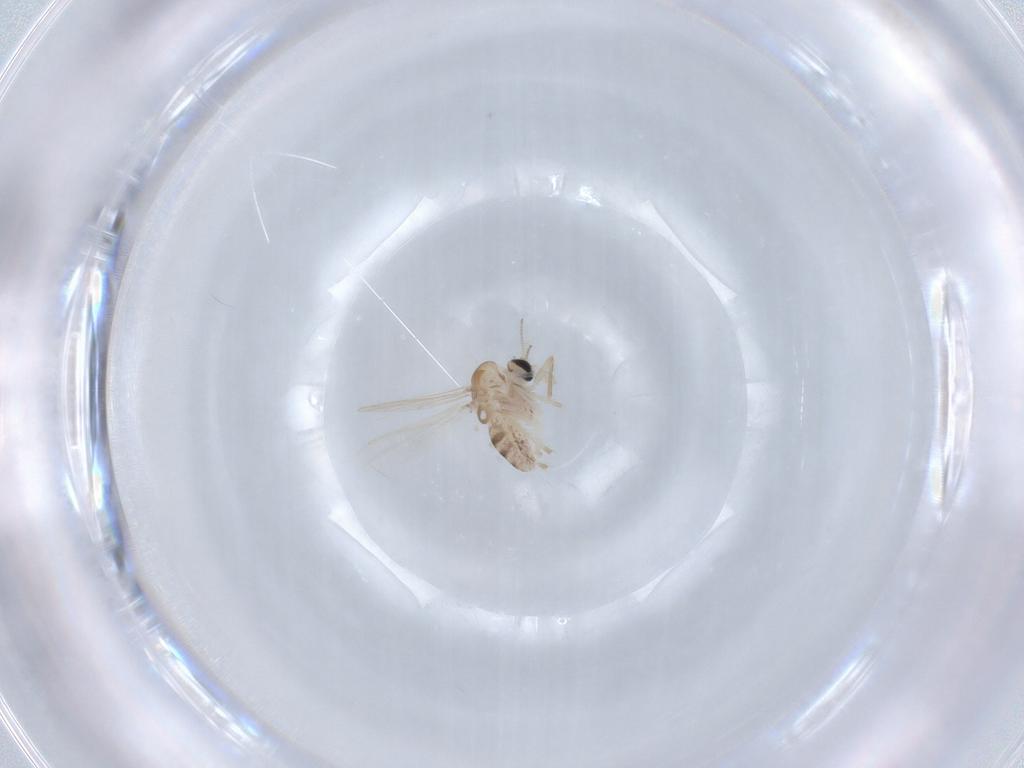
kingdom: Animalia
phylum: Arthropoda
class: Insecta
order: Diptera
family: Chironomidae
